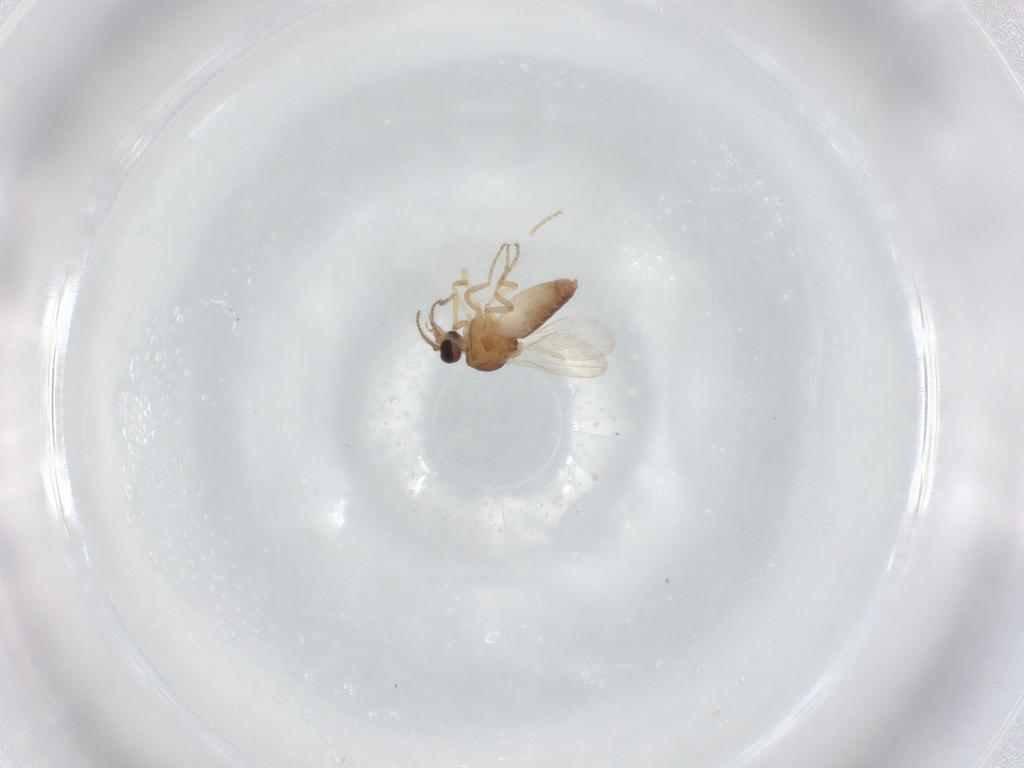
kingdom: Animalia
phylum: Arthropoda
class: Insecta
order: Diptera
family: Ceratopogonidae
